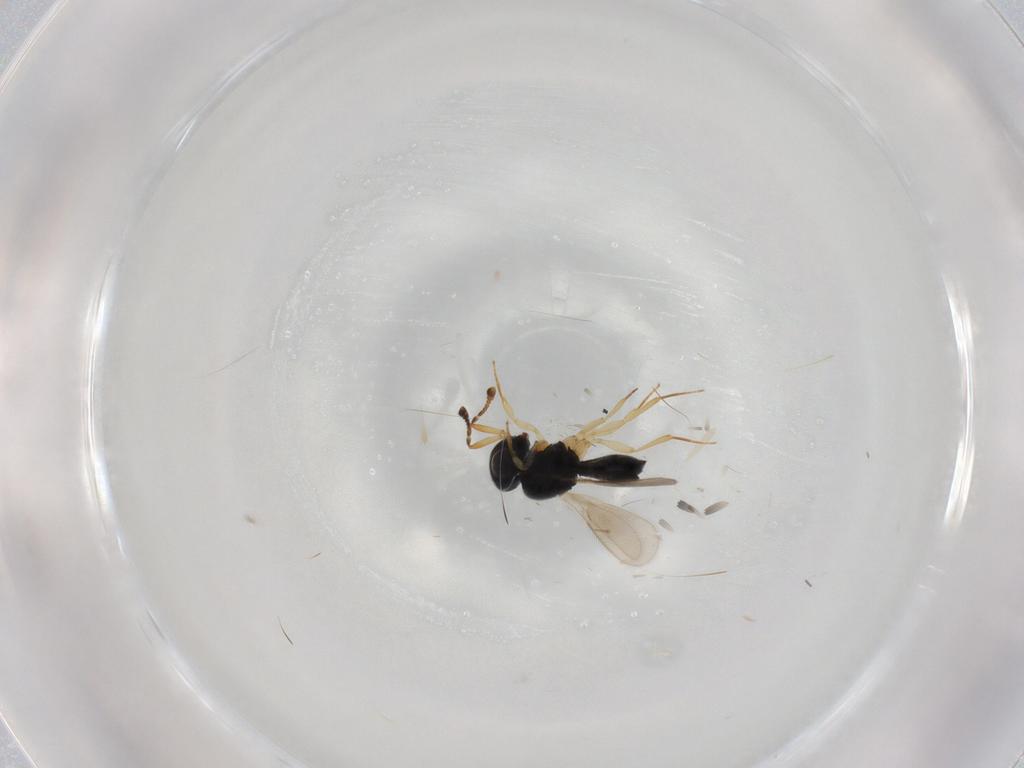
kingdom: Animalia
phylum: Arthropoda
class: Insecta
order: Hymenoptera
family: Scelionidae
